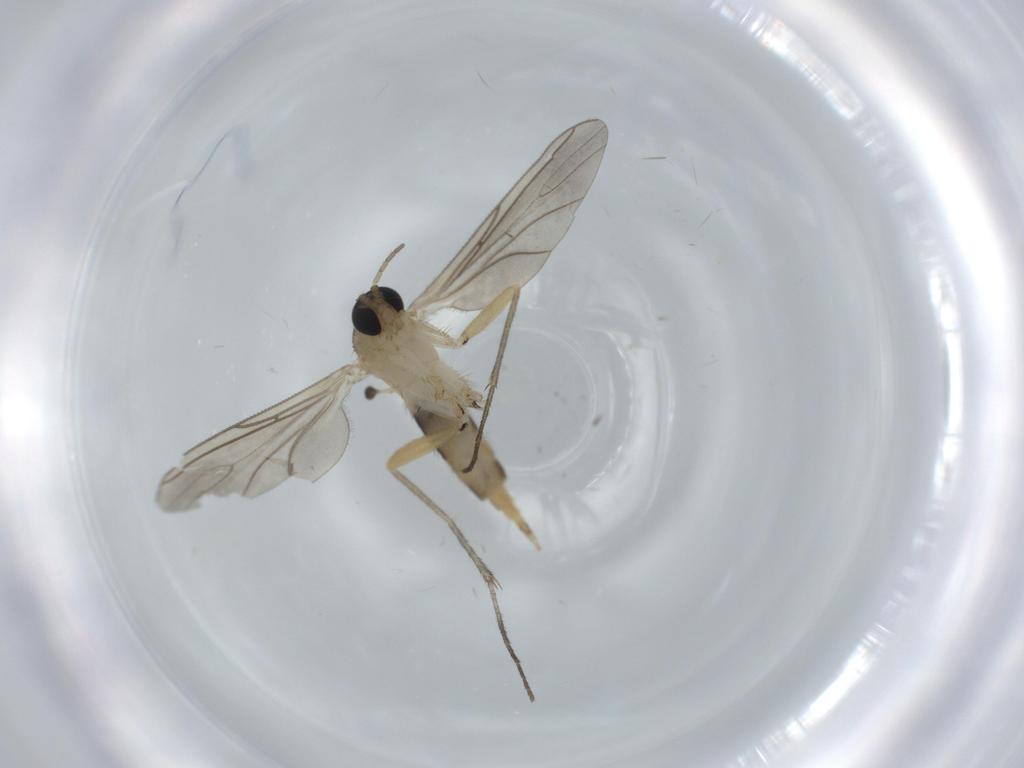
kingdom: Animalia
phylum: Arthropoda
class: Insecta
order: Diptera
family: Sciaridae
